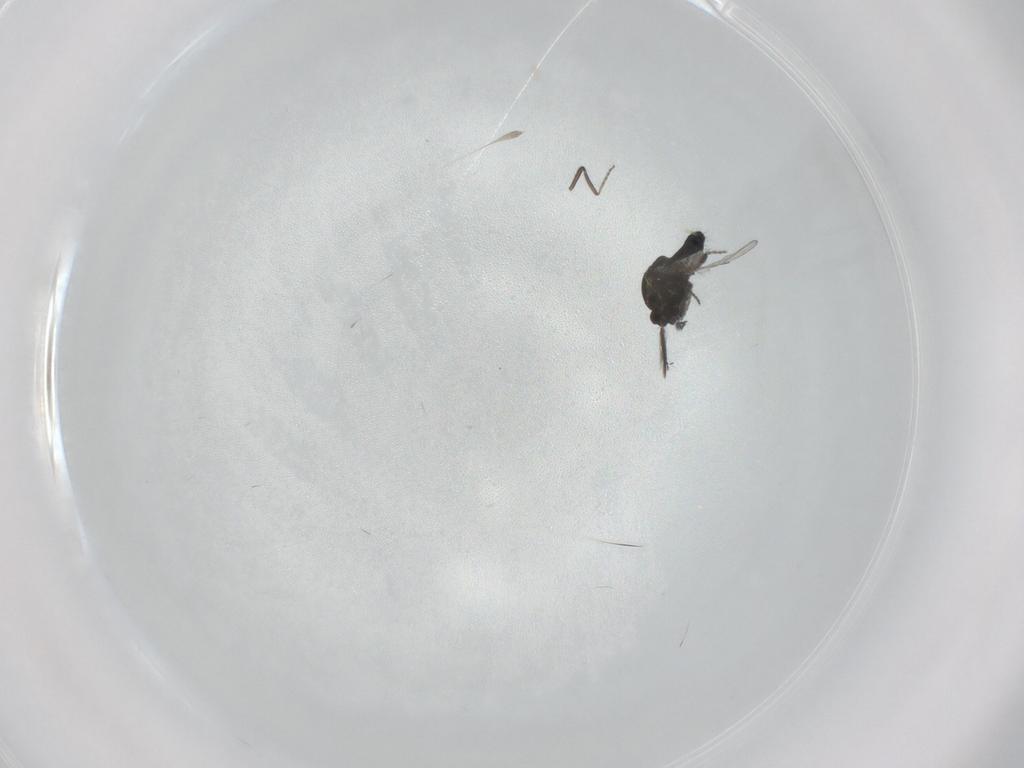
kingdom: Animalia
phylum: Arthropoda
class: Insecta
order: Diptera
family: Ceratopogonidae
